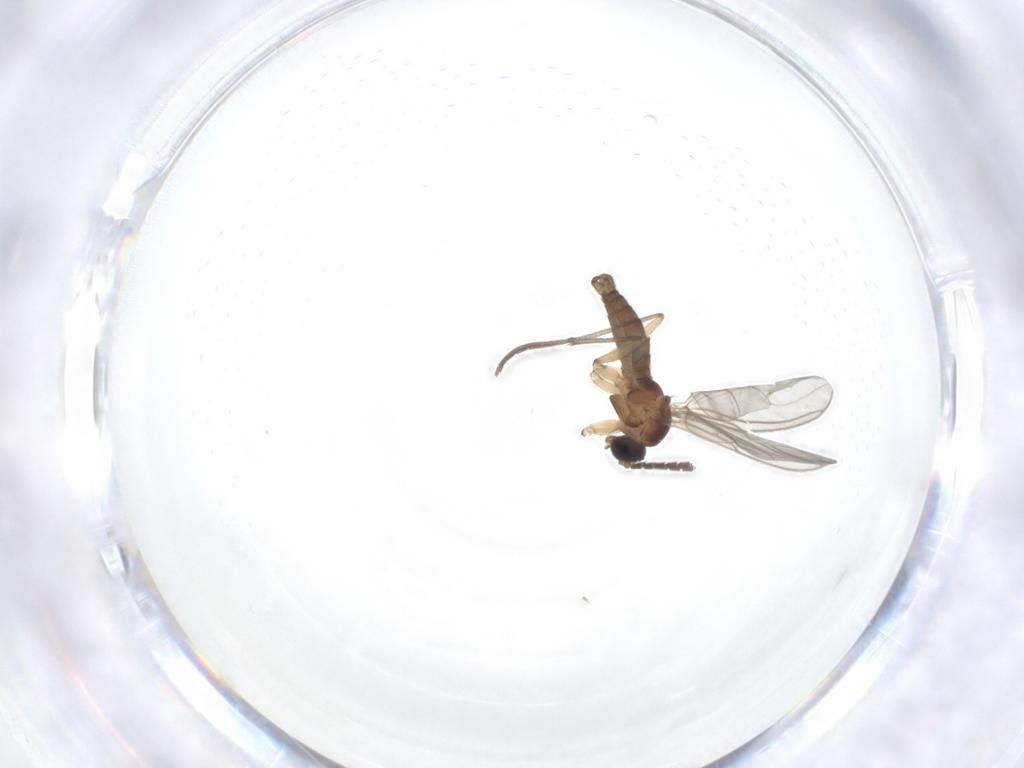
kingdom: Animalia
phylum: Arthropoda
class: Insecta
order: Diptera
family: Sciaridae
